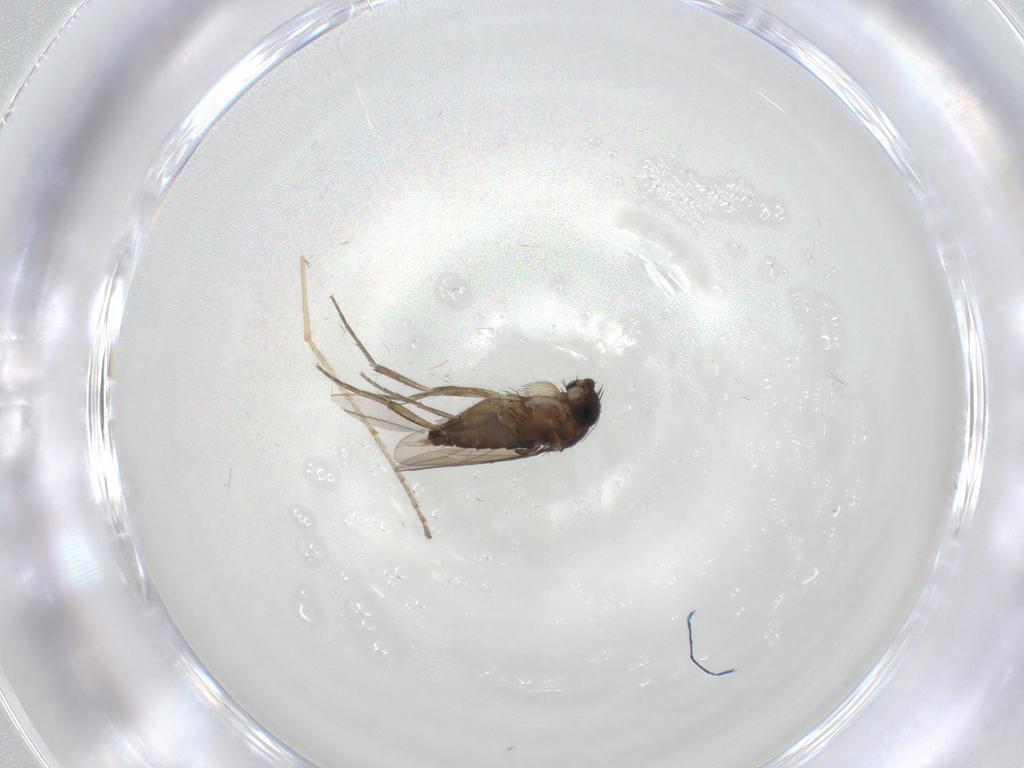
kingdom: Animalia
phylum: Arthropoda
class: Insecta
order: Diptera
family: Phoridae
